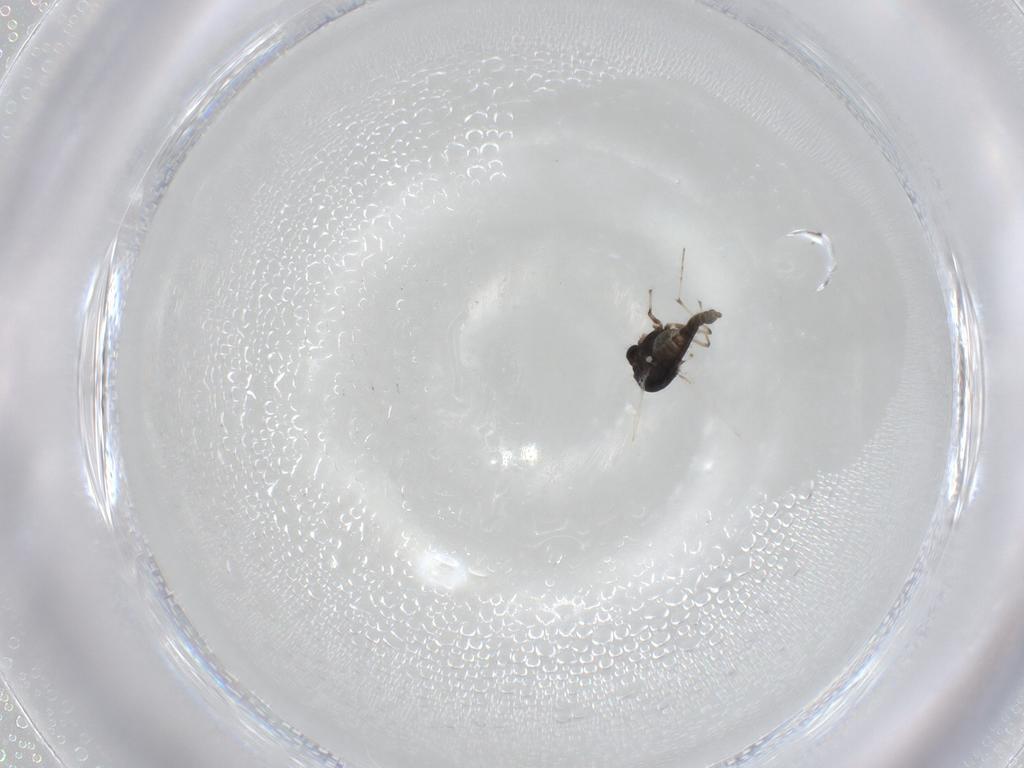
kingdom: Animalia
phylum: Arthropoda
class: Insecta
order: Diptera
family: Chironomidae
